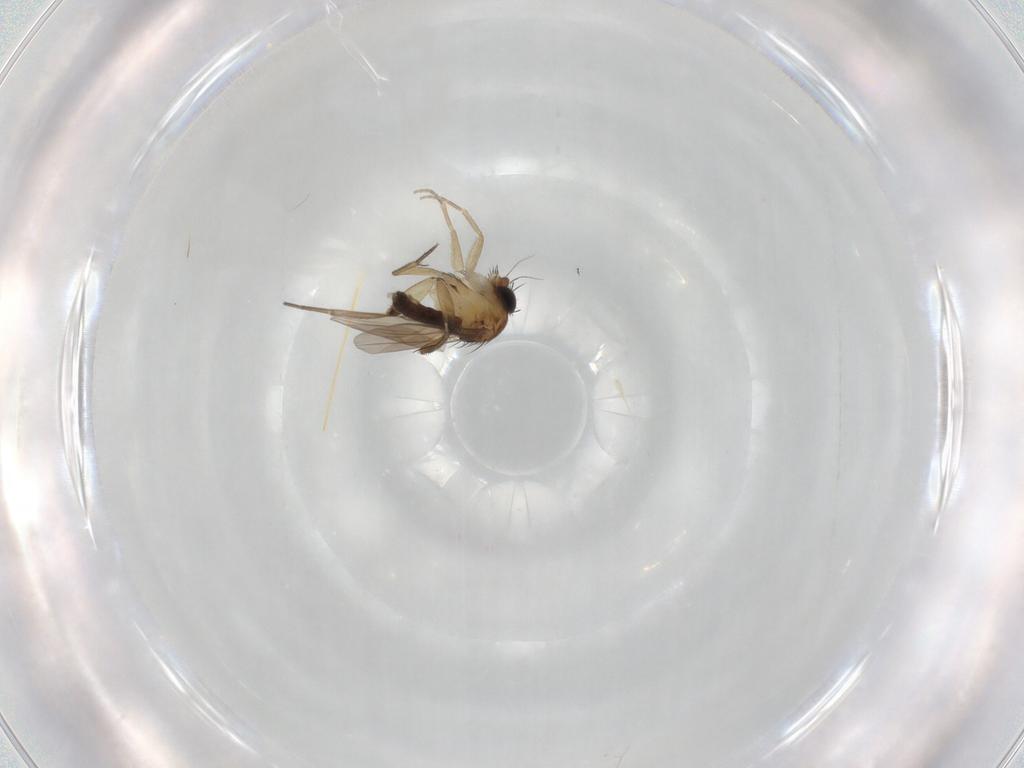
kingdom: Animalia
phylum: Arthropoda
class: Insecta
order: Diptera
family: Phoridae
